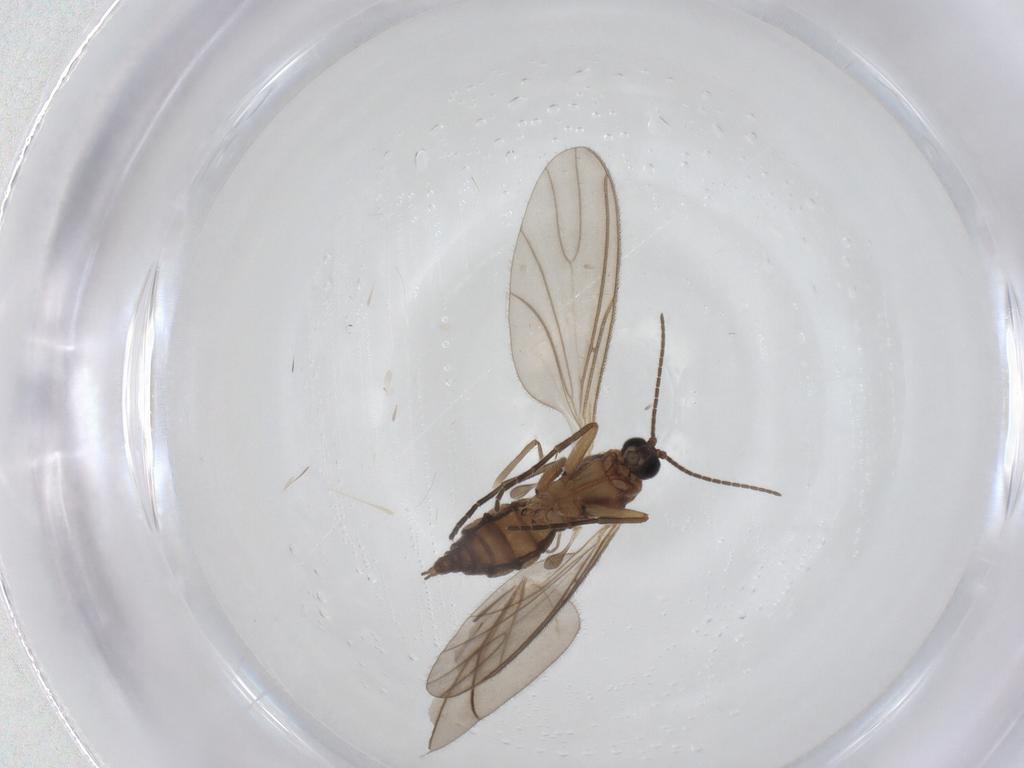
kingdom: Animalia
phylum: Arthropoda
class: Insecta
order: Diptera
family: Sciaridae
